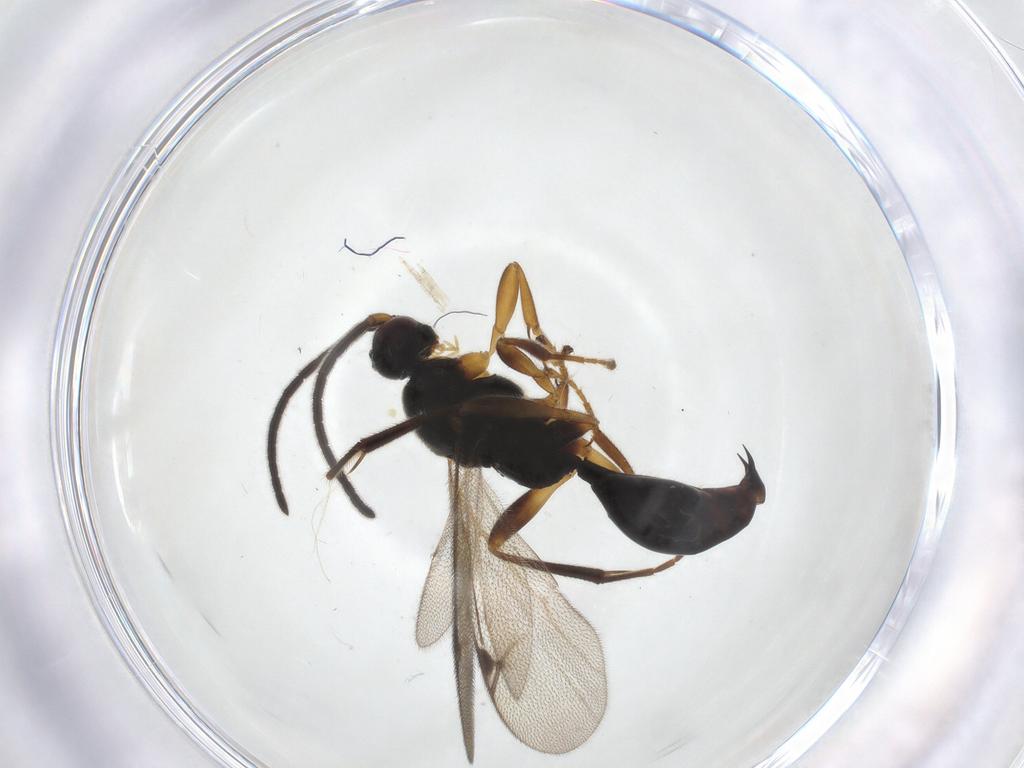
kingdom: Animalia
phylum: Arthropoda
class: Insecta
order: Hymenoptera
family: Proctotrupidae
